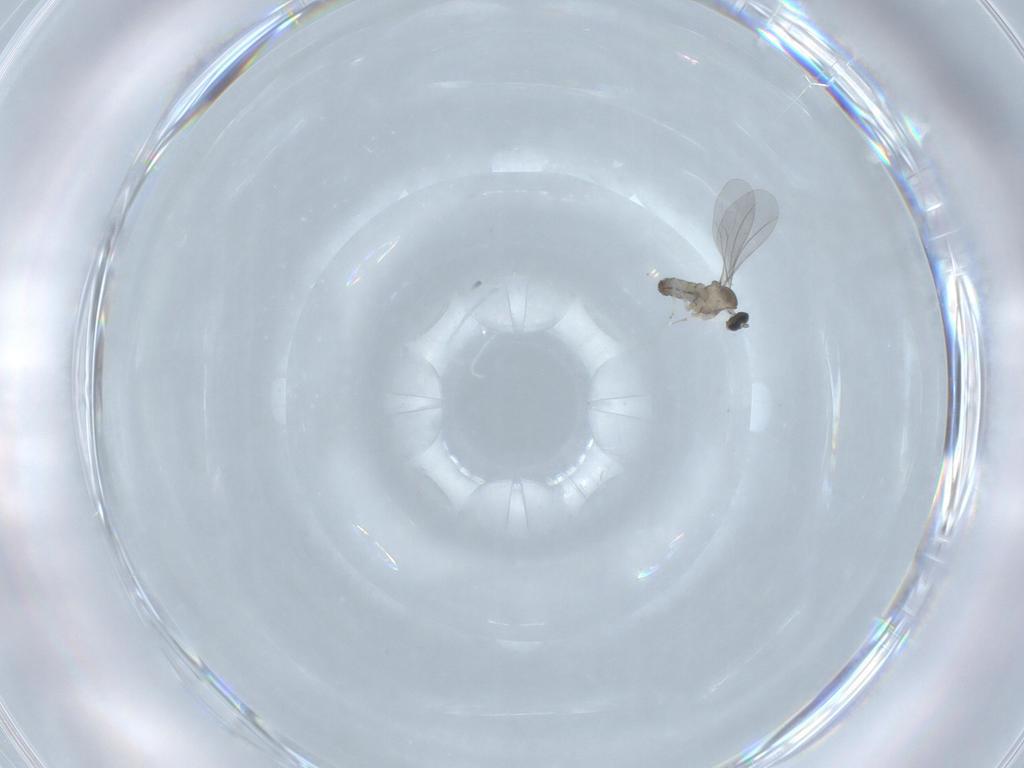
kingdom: Animalia
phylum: Arthropoda
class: Insecta
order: Diptera
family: Cecidomyiidae
